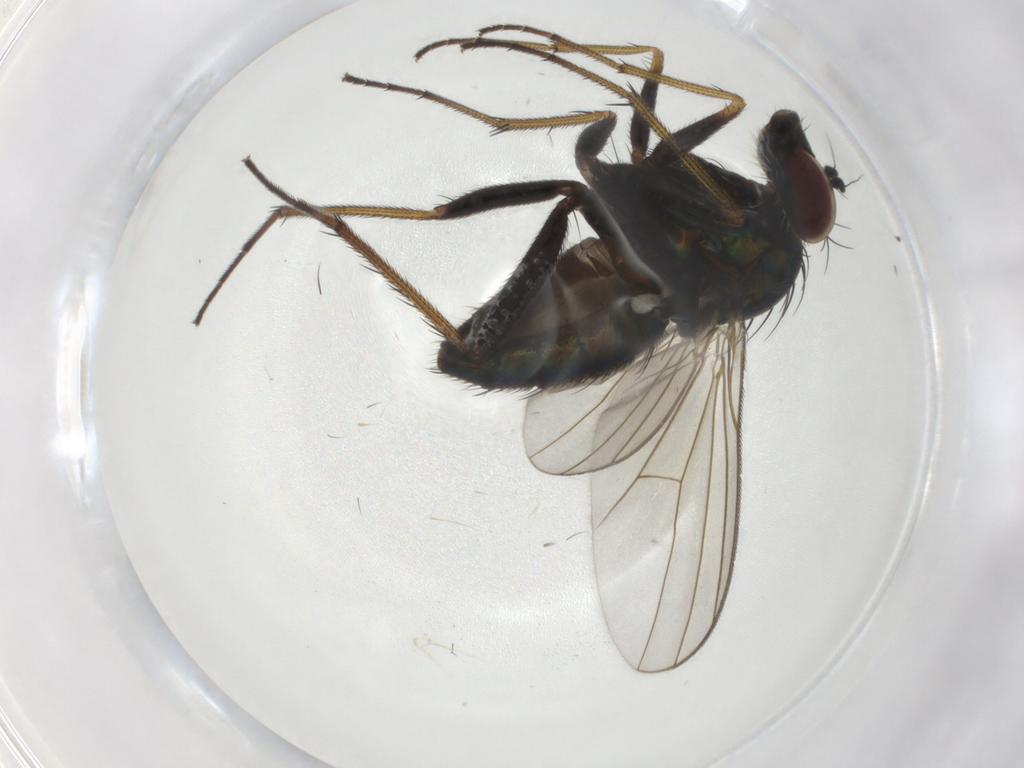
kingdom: Animalia
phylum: Arthropoda
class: Insecta
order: Diptera
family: Dolichopodidae
